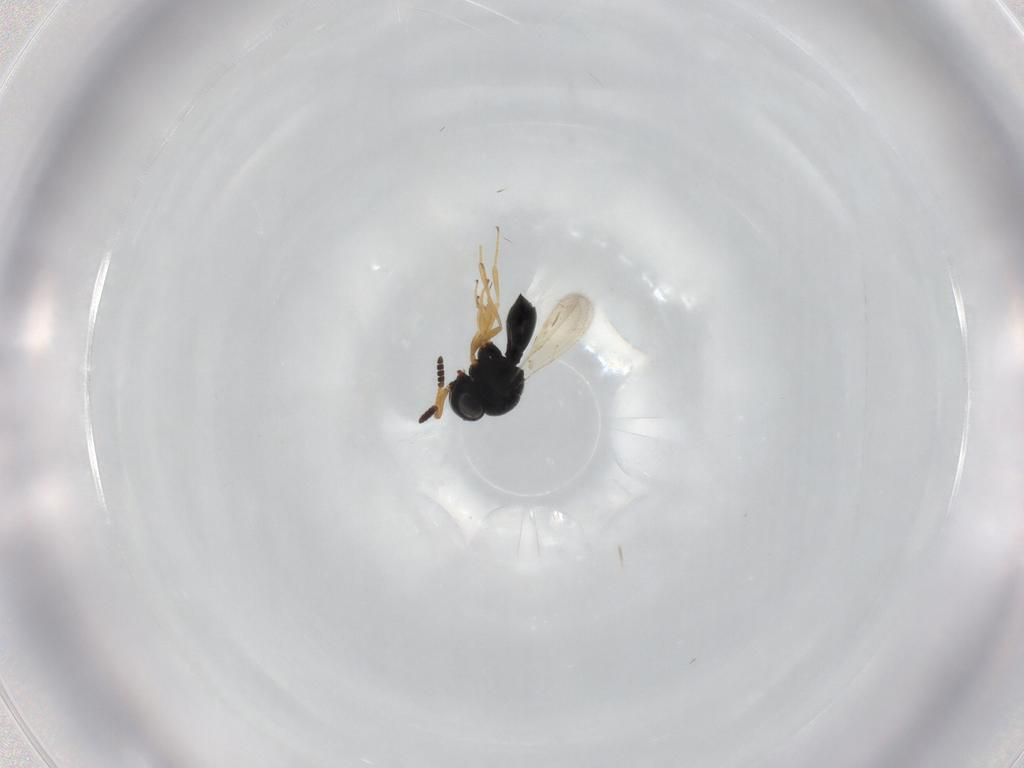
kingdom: Animalia
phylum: Arthropoda
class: Insecta
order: Hymenoptera
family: Scelionidae
